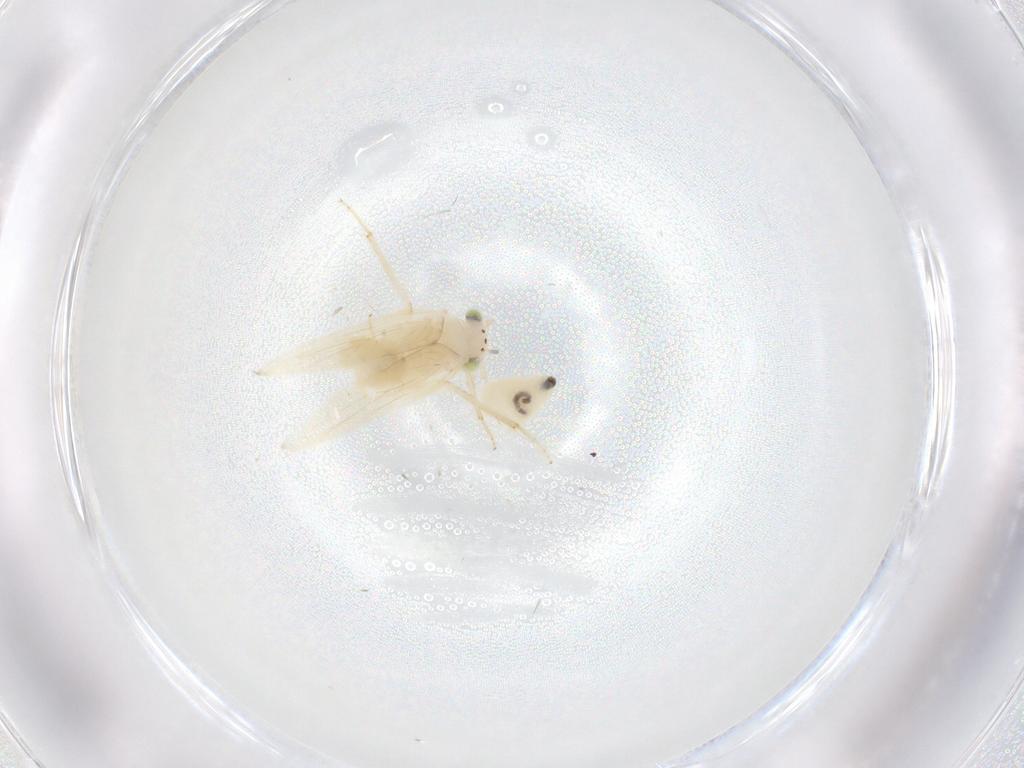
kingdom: Animalia
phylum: Arthropoda
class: Insecta
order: Psocodea
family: Lepidopsocidae
